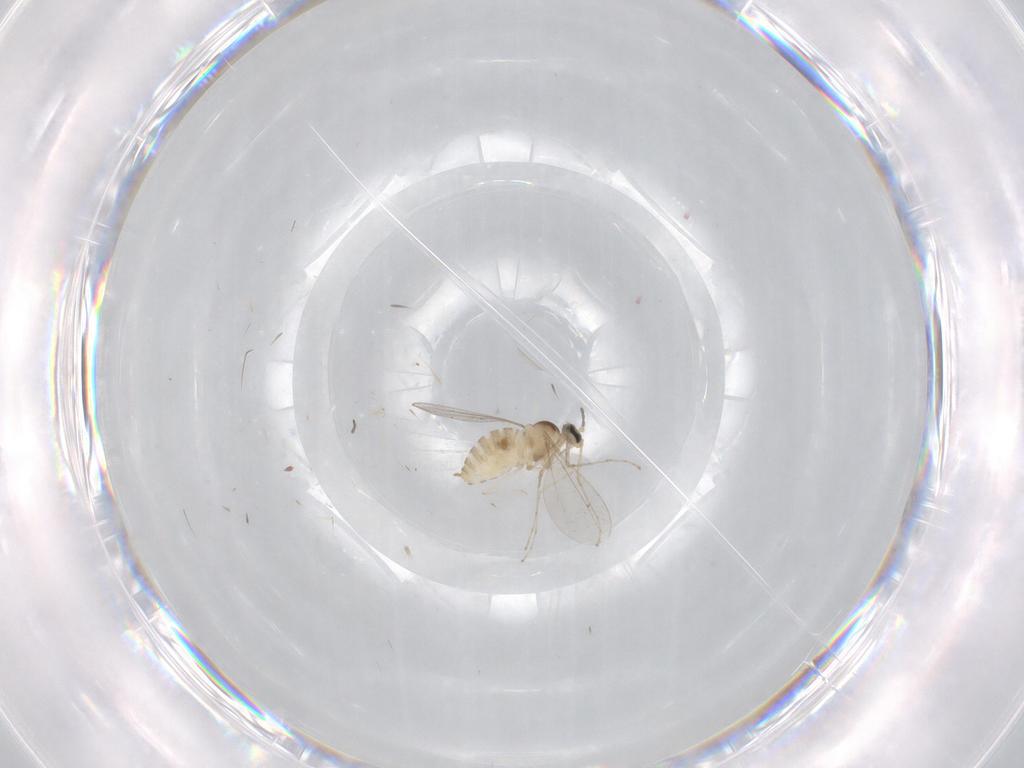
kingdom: Animalia
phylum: Arthropoda
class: Insecta
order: Diptera
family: Cecidomyiidae
